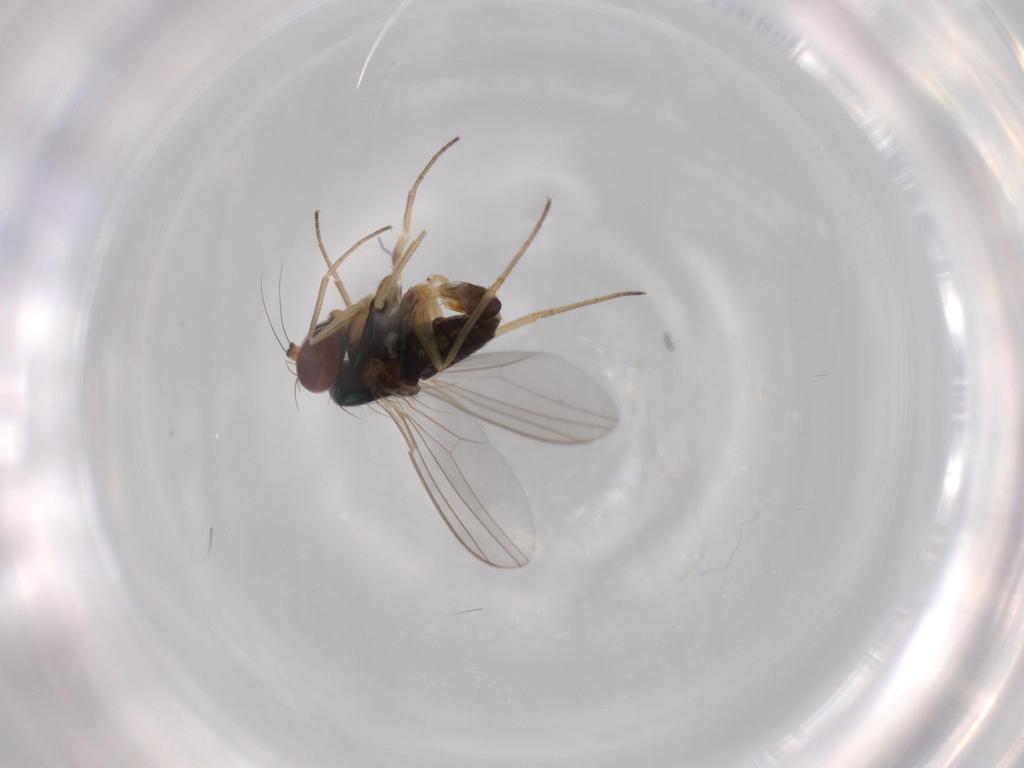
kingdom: Animalia
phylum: Arthropoda
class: Insecta
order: Diptera
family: Dolichopodidae
